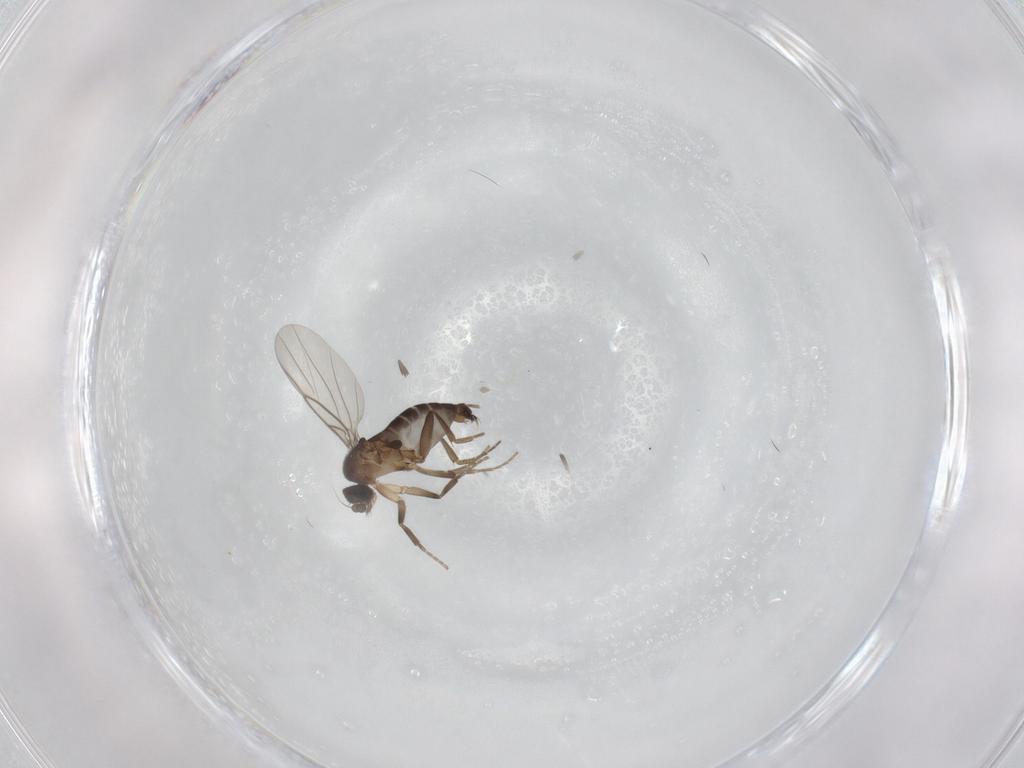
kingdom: Animalia
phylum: Arthropoda
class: Insecta
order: Diptera
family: Phoridae
